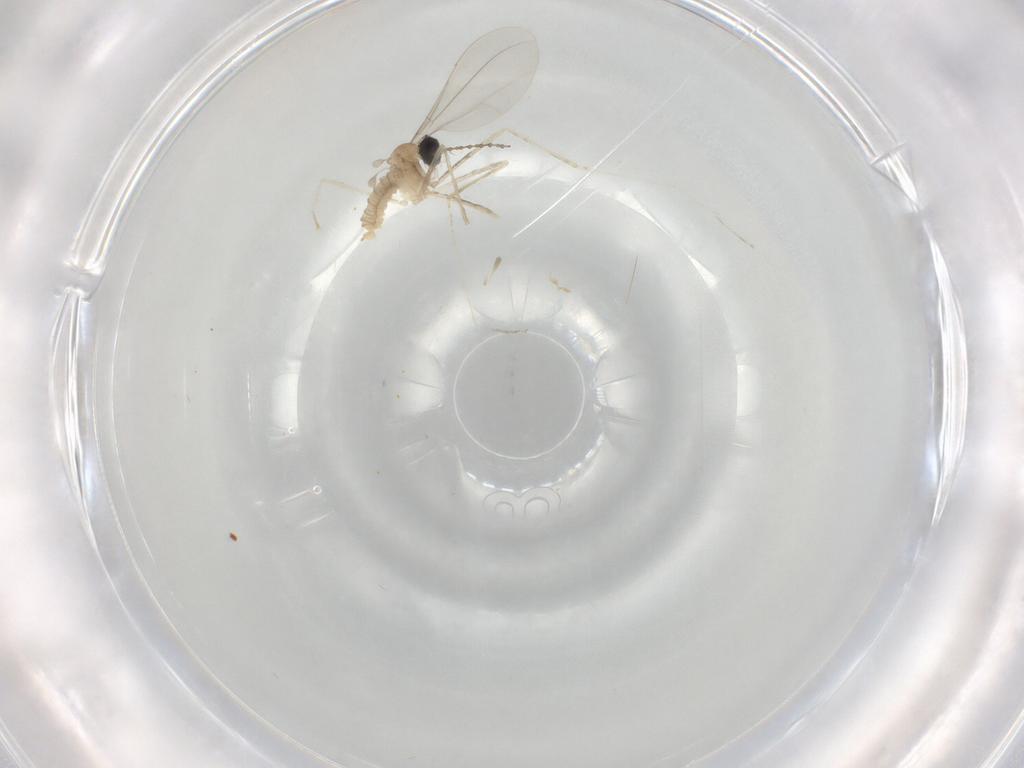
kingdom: Animalia
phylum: Arthropoda
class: Insecta
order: Diptera
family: Cecidomyiidae
